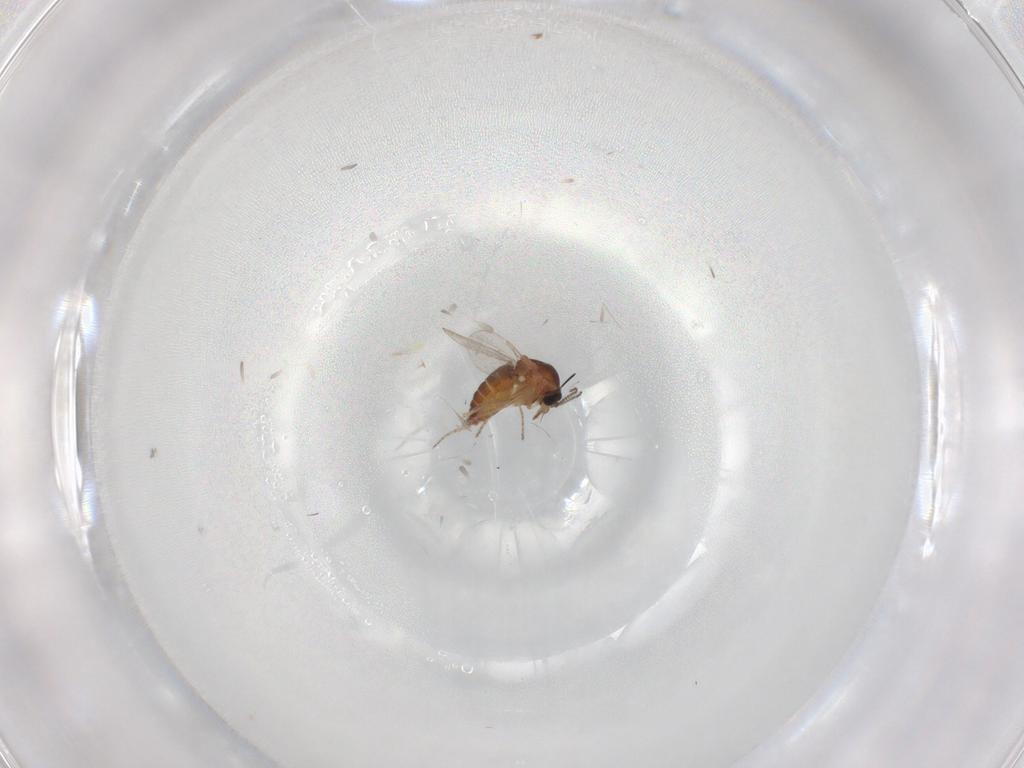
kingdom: Animalia
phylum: Arthropoda
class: Insecta
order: Diptera
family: Ceratopogonidae
